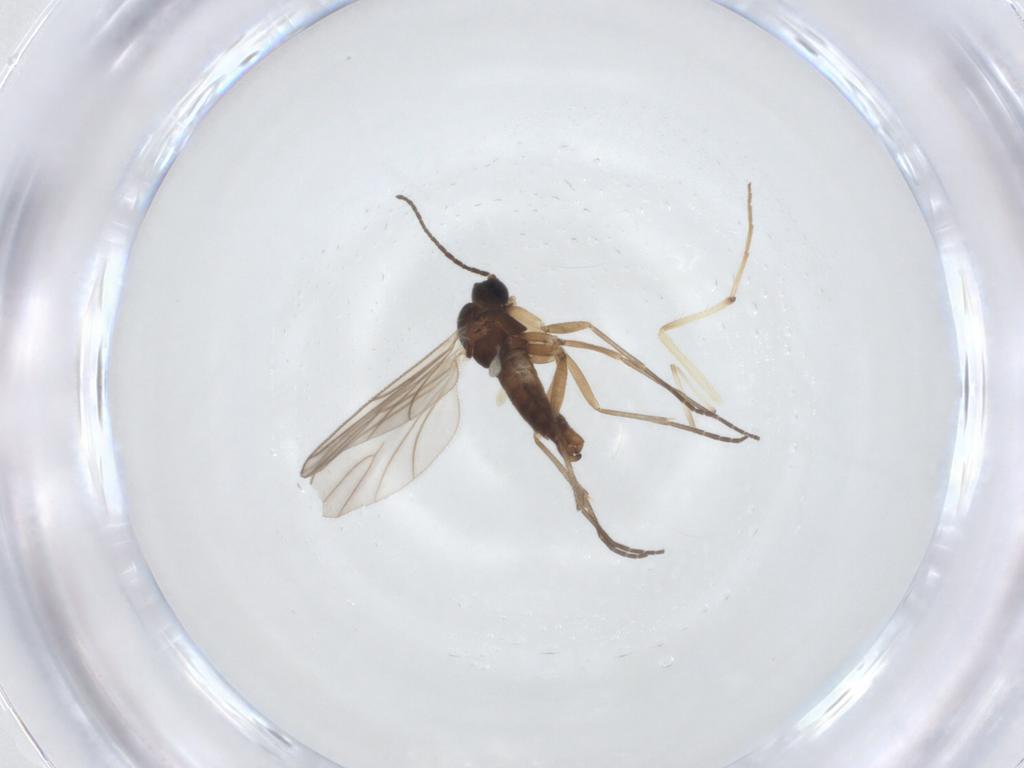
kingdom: Animalia
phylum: Arthropoda
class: Insecta
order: Diptera
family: Sciaridae
